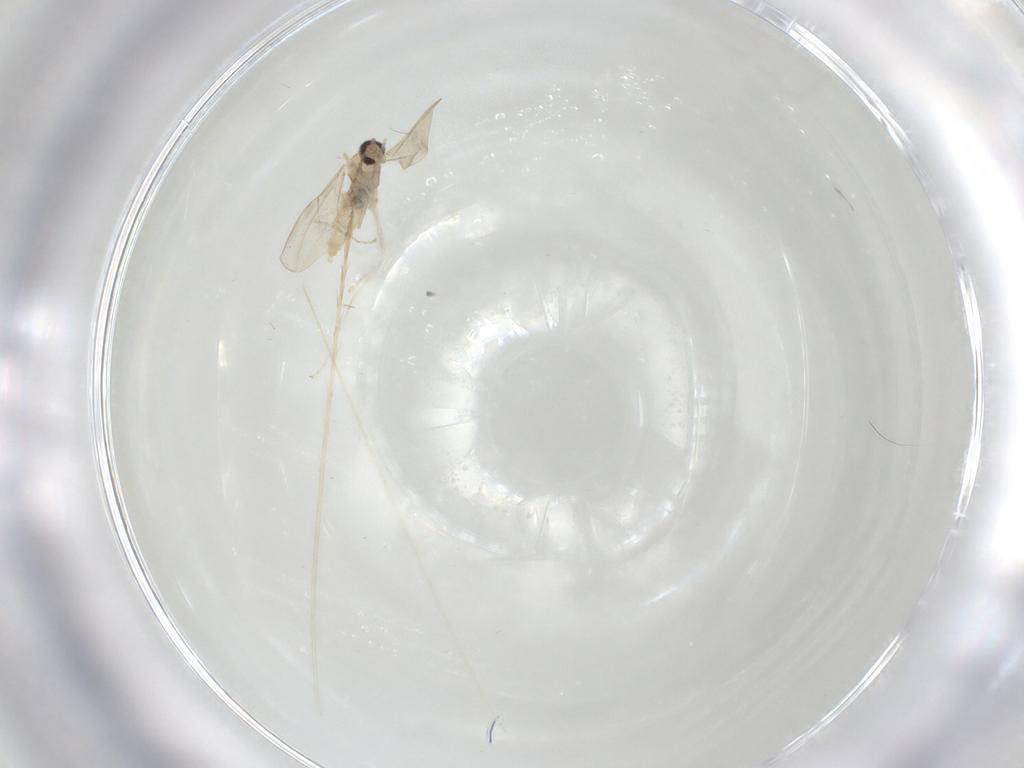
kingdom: Animalia
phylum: Arthropoda
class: Insecta
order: Diptera
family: Cecidomyiidae
